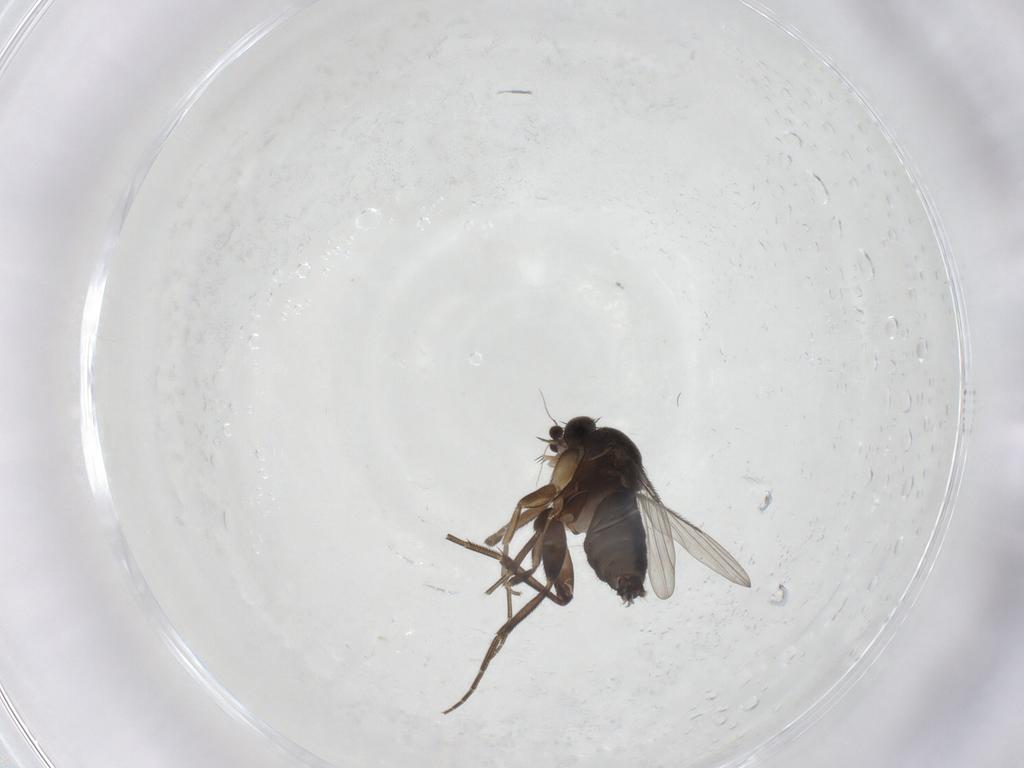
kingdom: Animalia
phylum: Arthropoda
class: Insecta
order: Diptera
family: Phoridae
